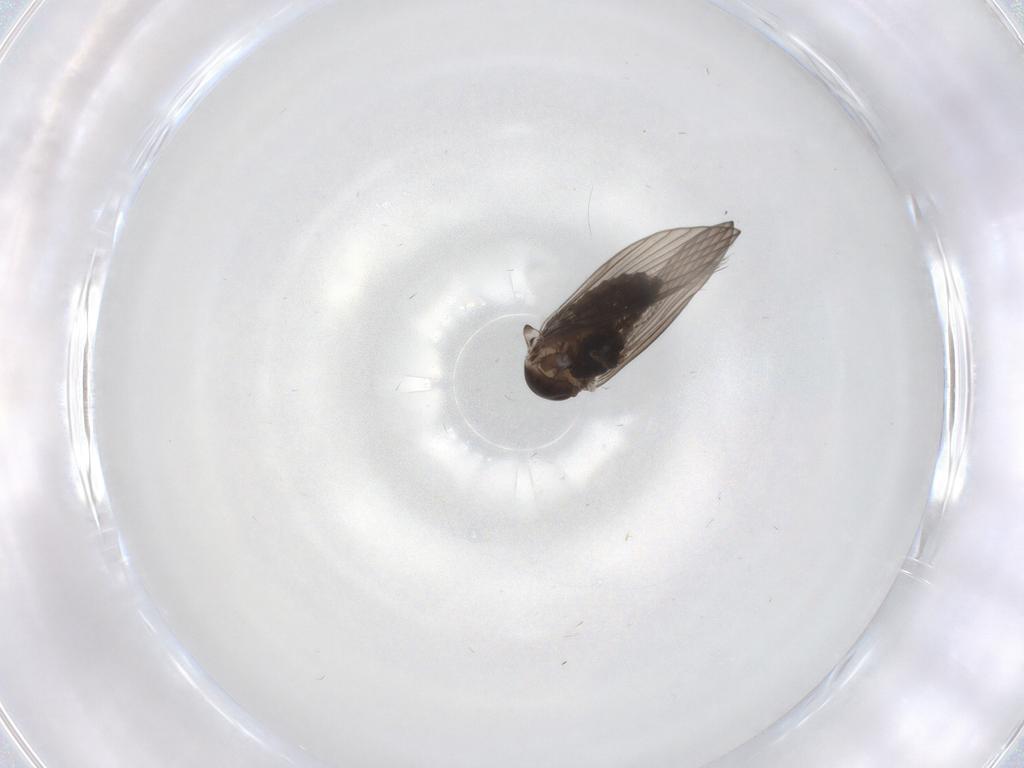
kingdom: Animalia
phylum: Arthropoda
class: Insecta
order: Diptera
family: Psychodidae
